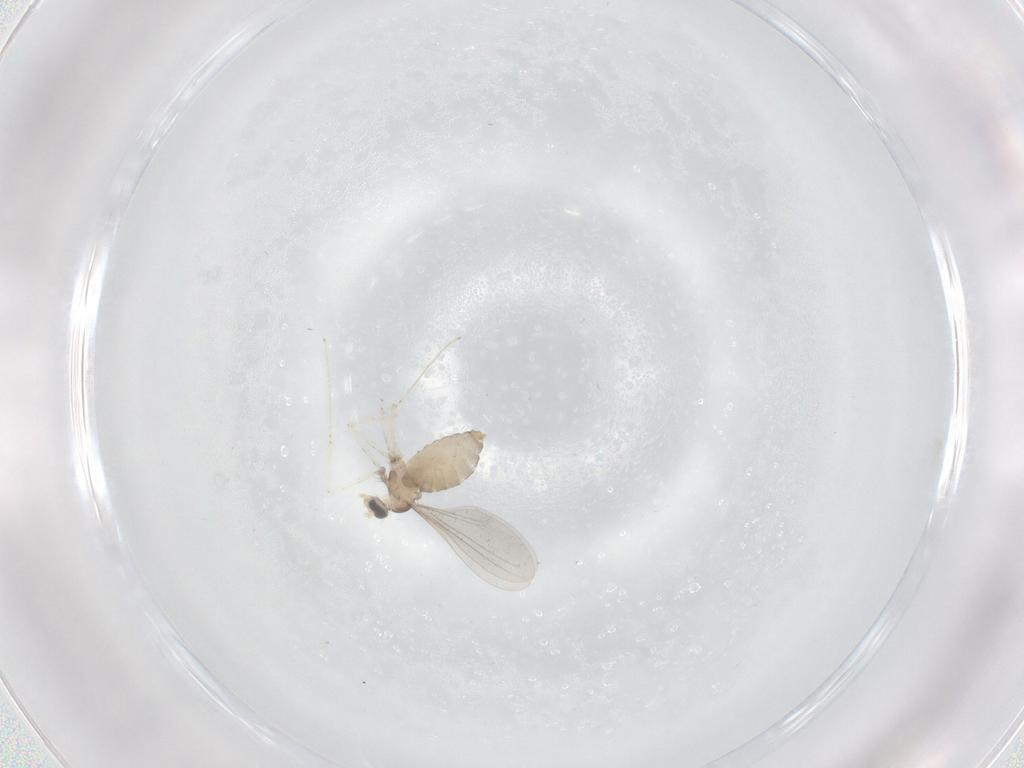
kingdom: Animalia
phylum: Arthropoda
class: Insecta
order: Diptera
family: Cecidomyiidae
